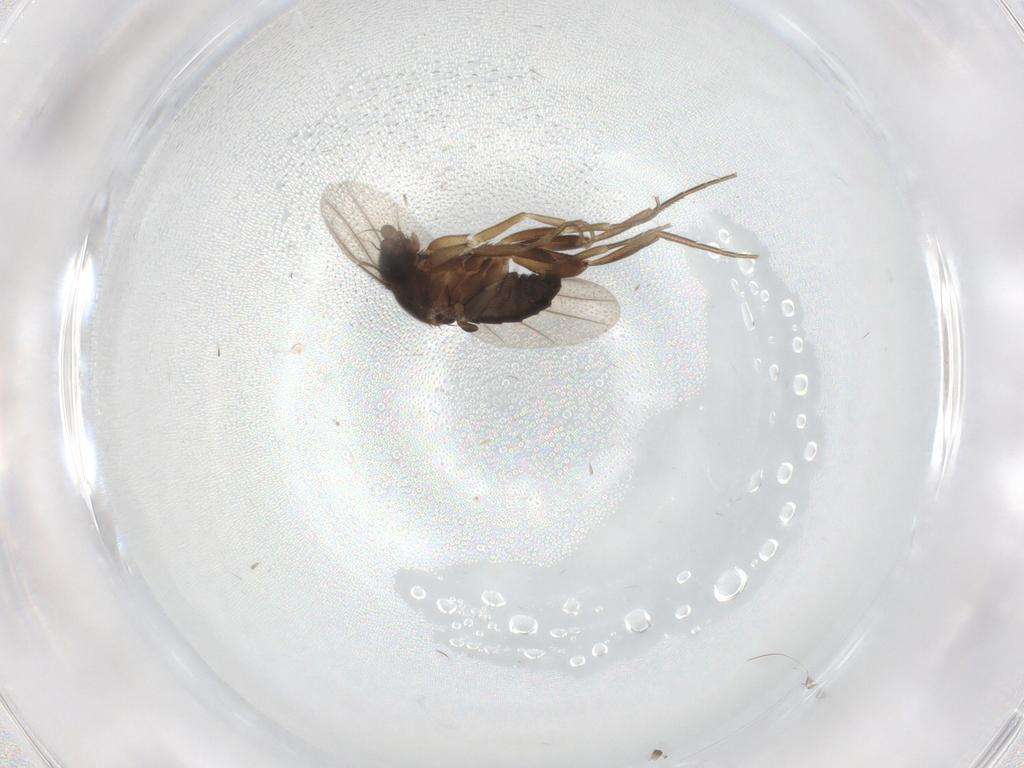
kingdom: Animalia
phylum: Arthropoda
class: Insecta
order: Diptera
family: Phoridae
